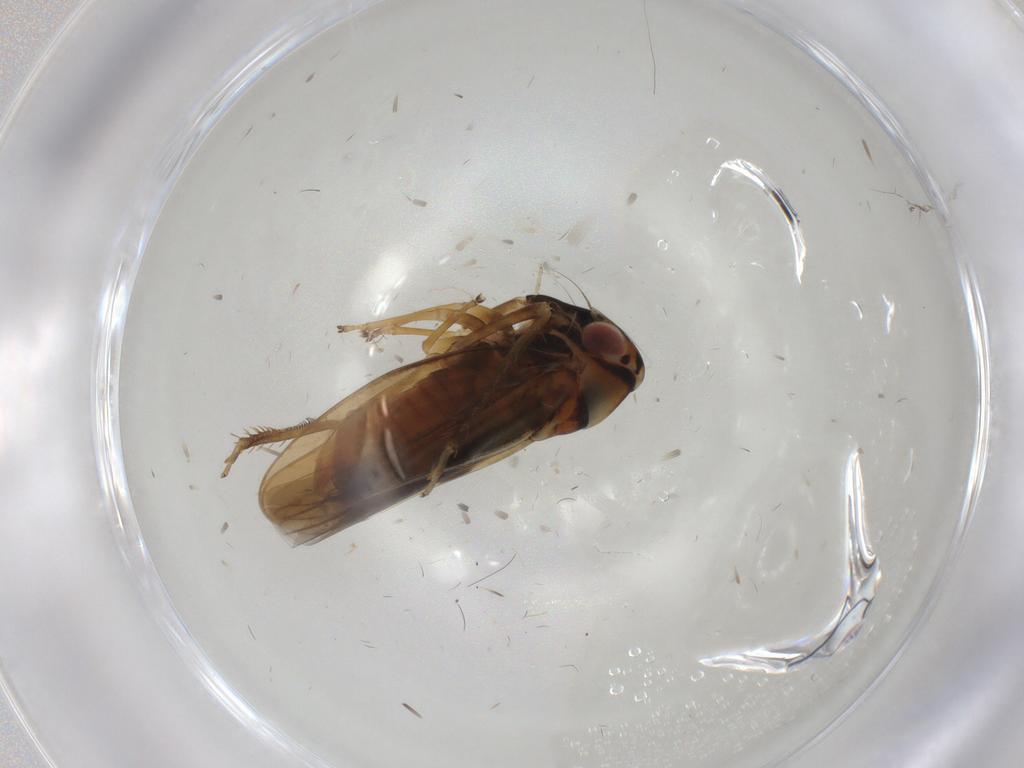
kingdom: Animalia
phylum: Arthropoda
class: Insecta
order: Hemiptera
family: Cicadellidae
